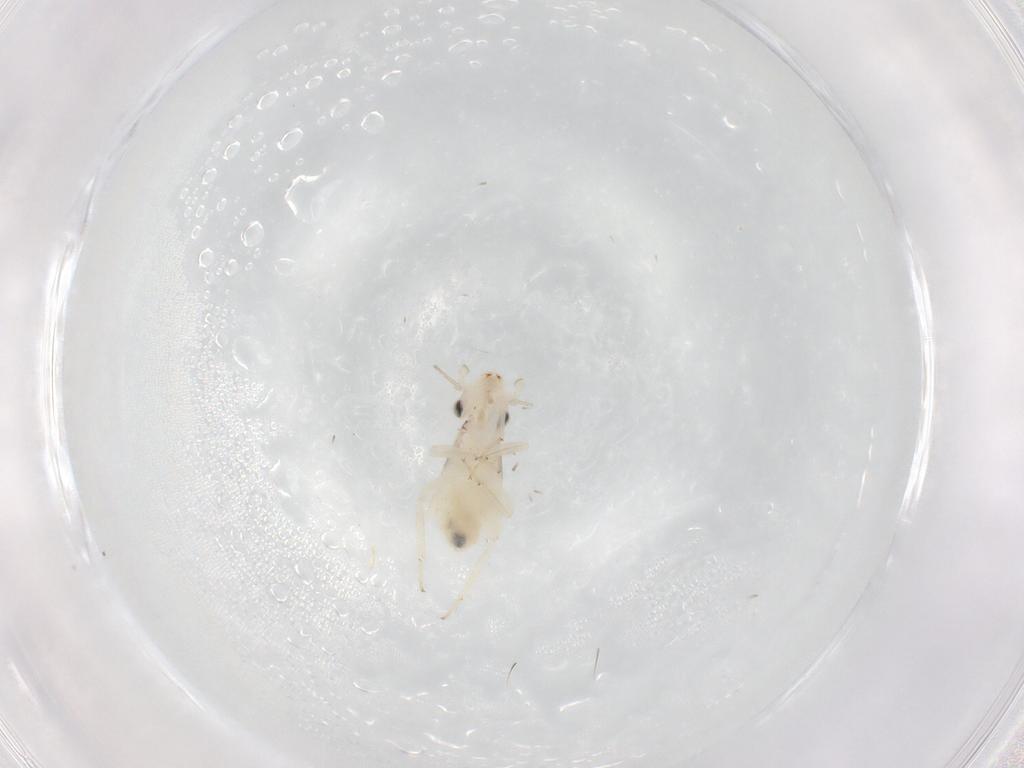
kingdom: Animalia
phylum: Arthropoda
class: Insecta
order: Psocodea
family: Lepidopsocidae
